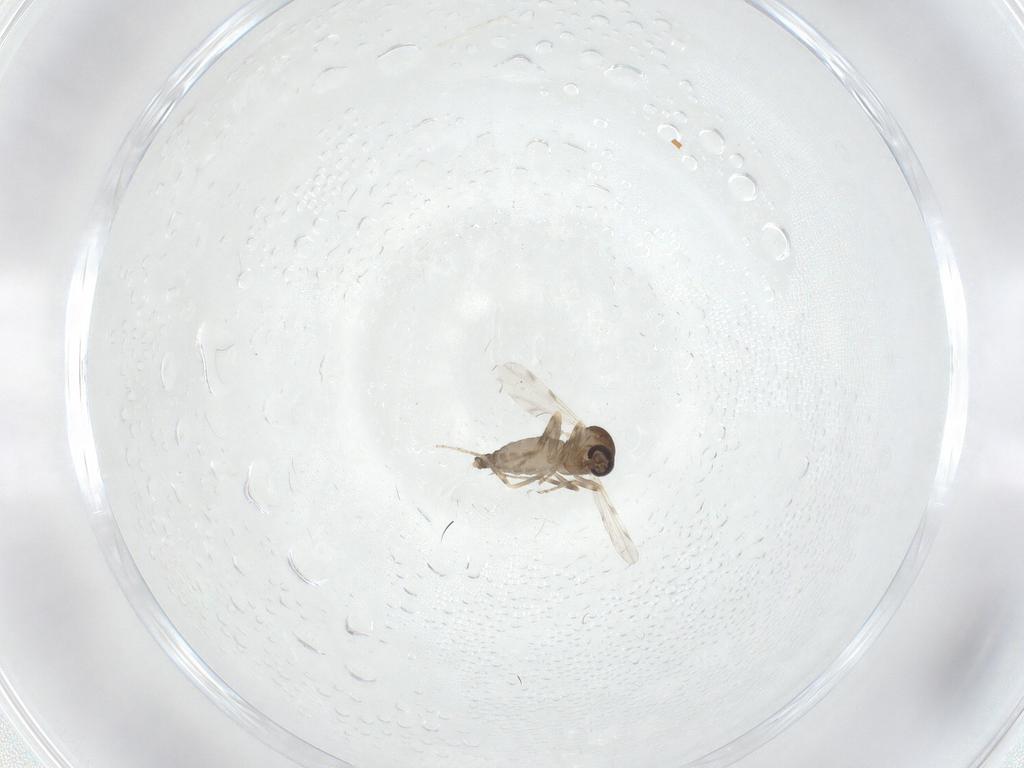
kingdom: Animalia
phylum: Arthropoda
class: Insecta
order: Diptera
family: Ceratopogonidae
